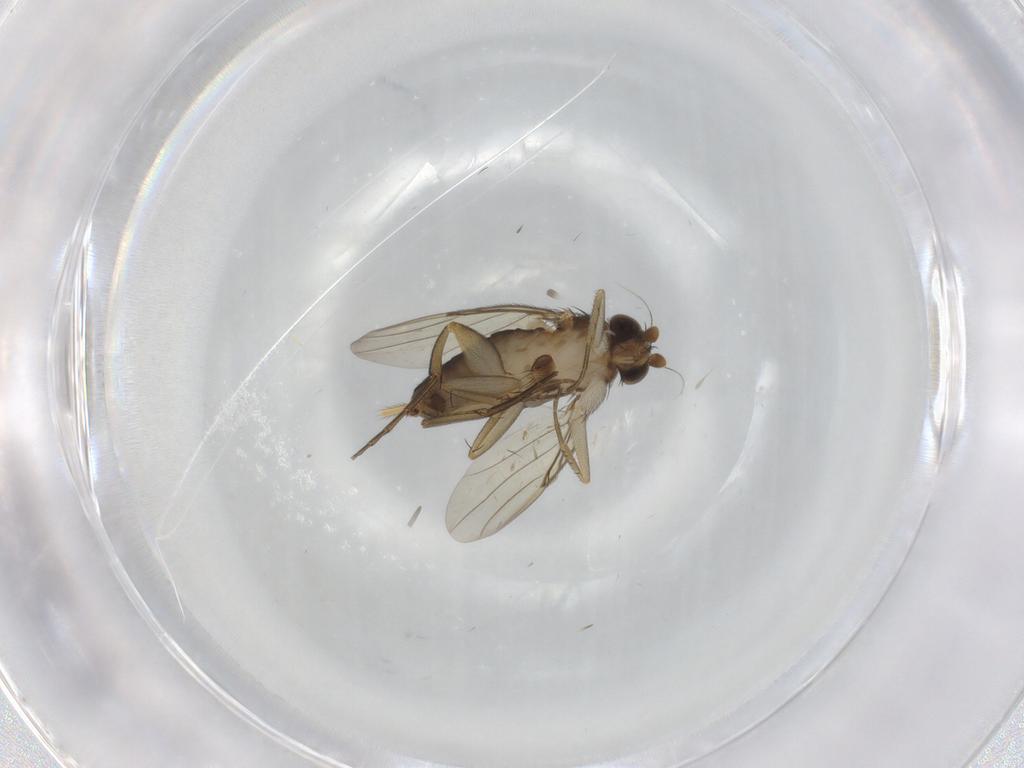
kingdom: Animalia
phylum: Arthropoda
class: Insecta
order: Diptera
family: Phoridae
